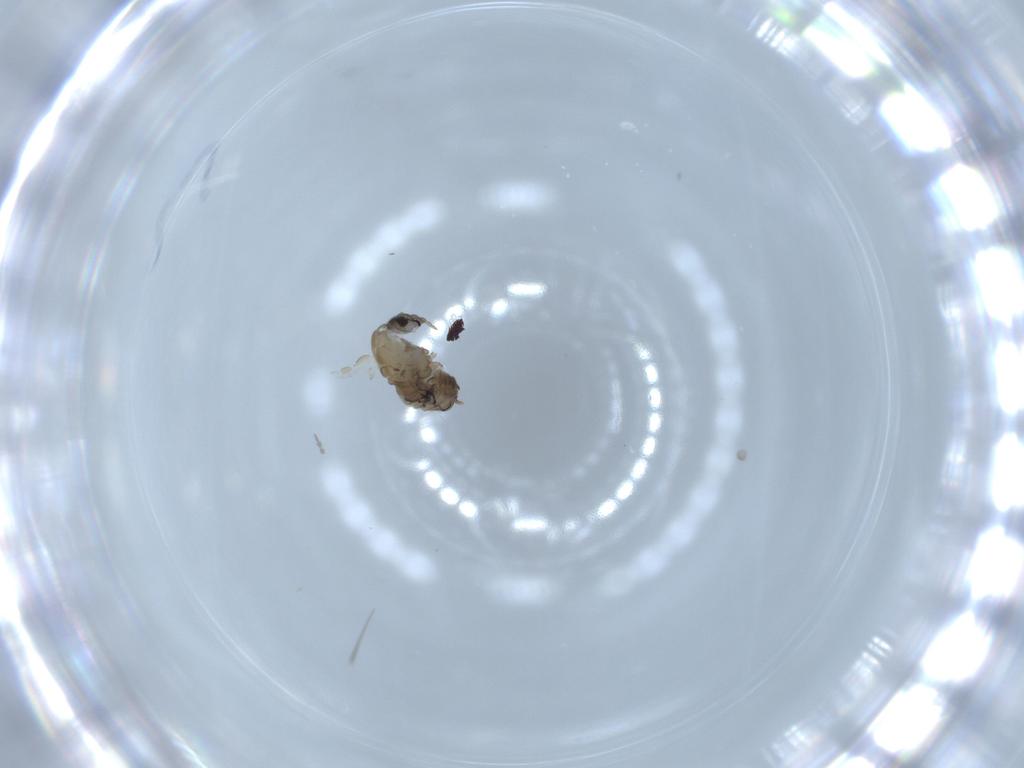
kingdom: Animalia
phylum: Arthropoda
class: Insecta
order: Diptera
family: Psychodidae
